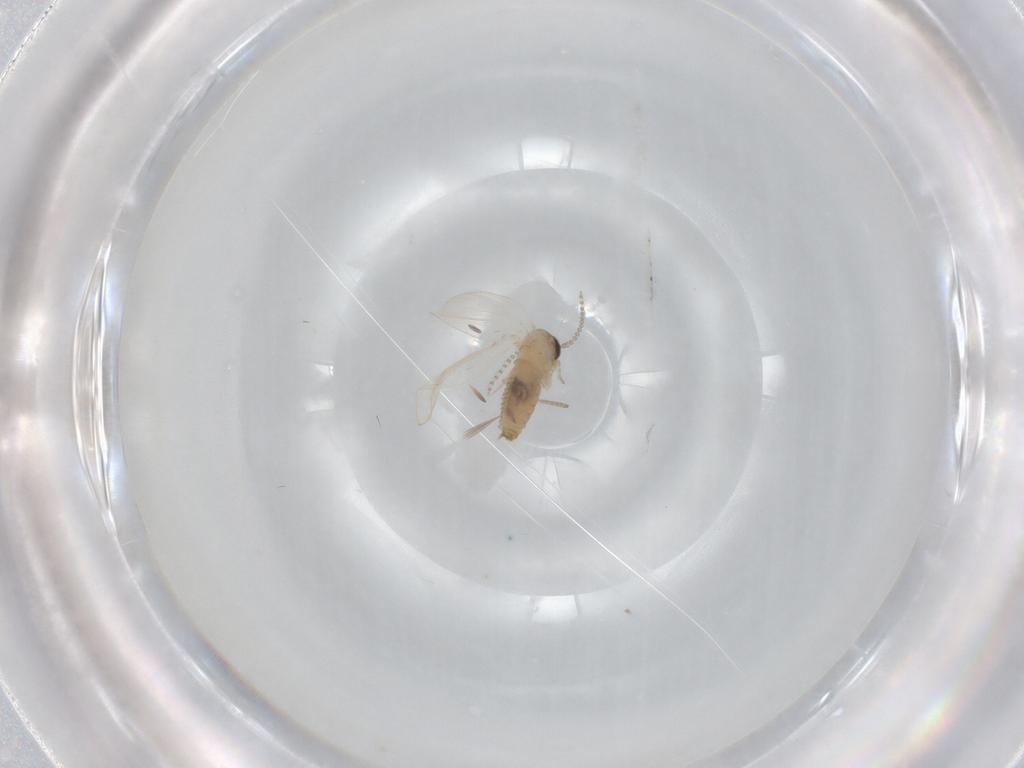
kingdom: Animalia
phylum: Arthropoda
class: Insecta
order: Diptera
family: Psychodidae
